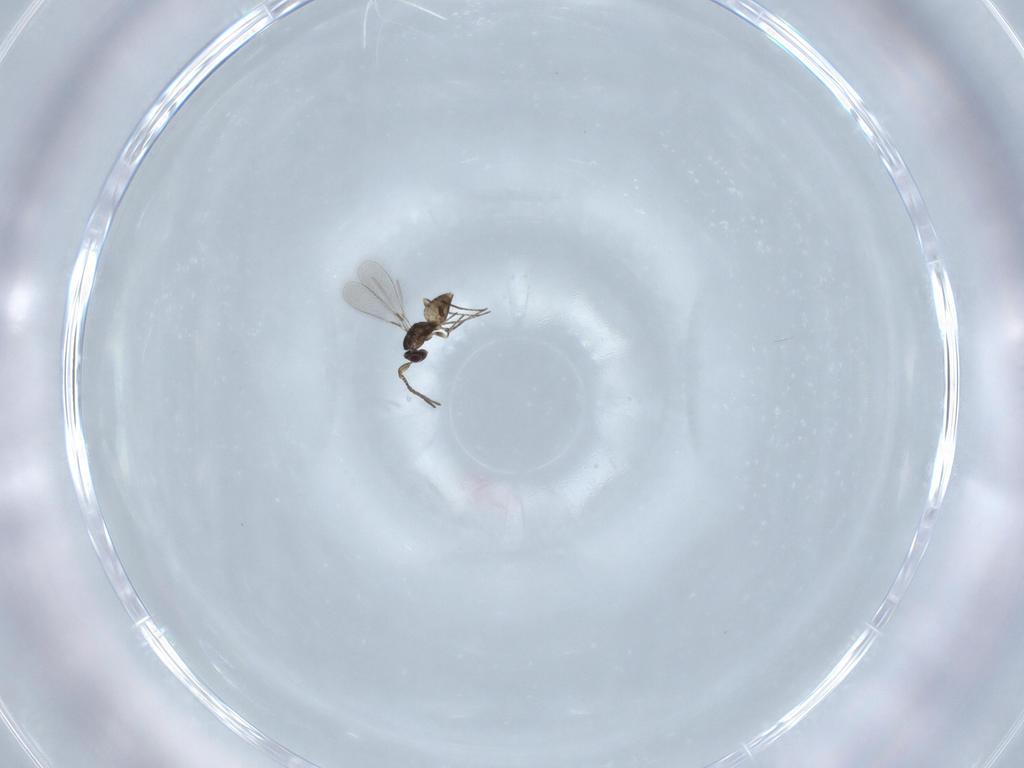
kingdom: Animalia
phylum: Arthropoda
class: Insecta
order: Hymenoptera
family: Mymaridae
